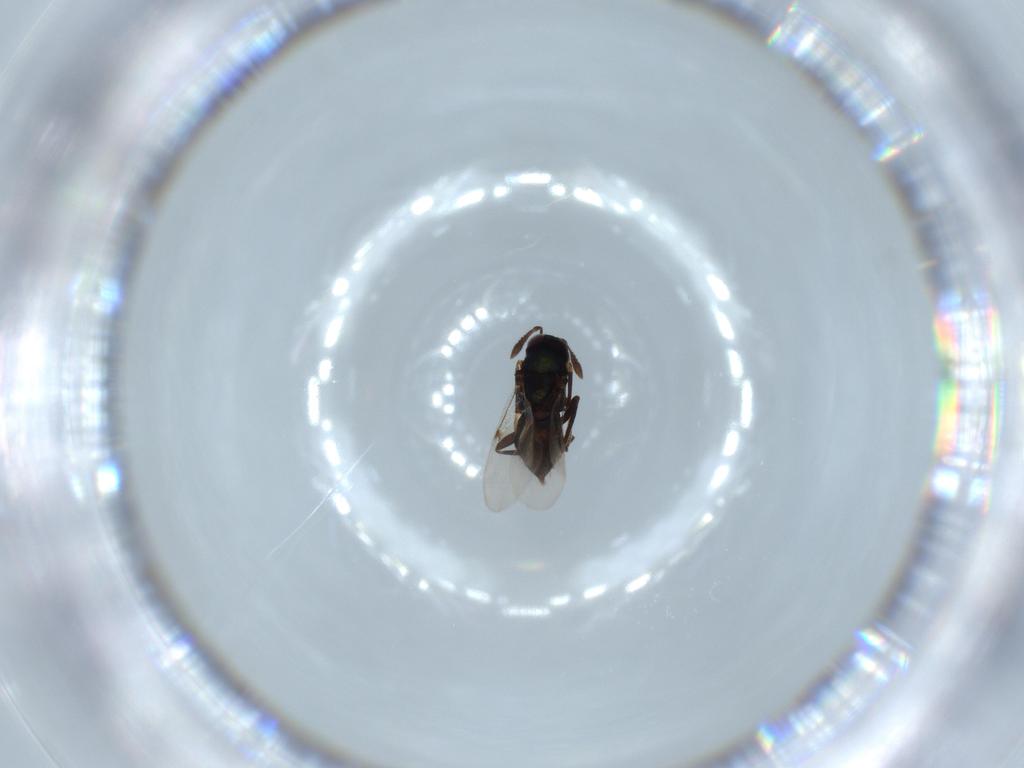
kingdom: Animalia
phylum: Arthropoda
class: Insecta
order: Hymenoptera
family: Encyrtidae
